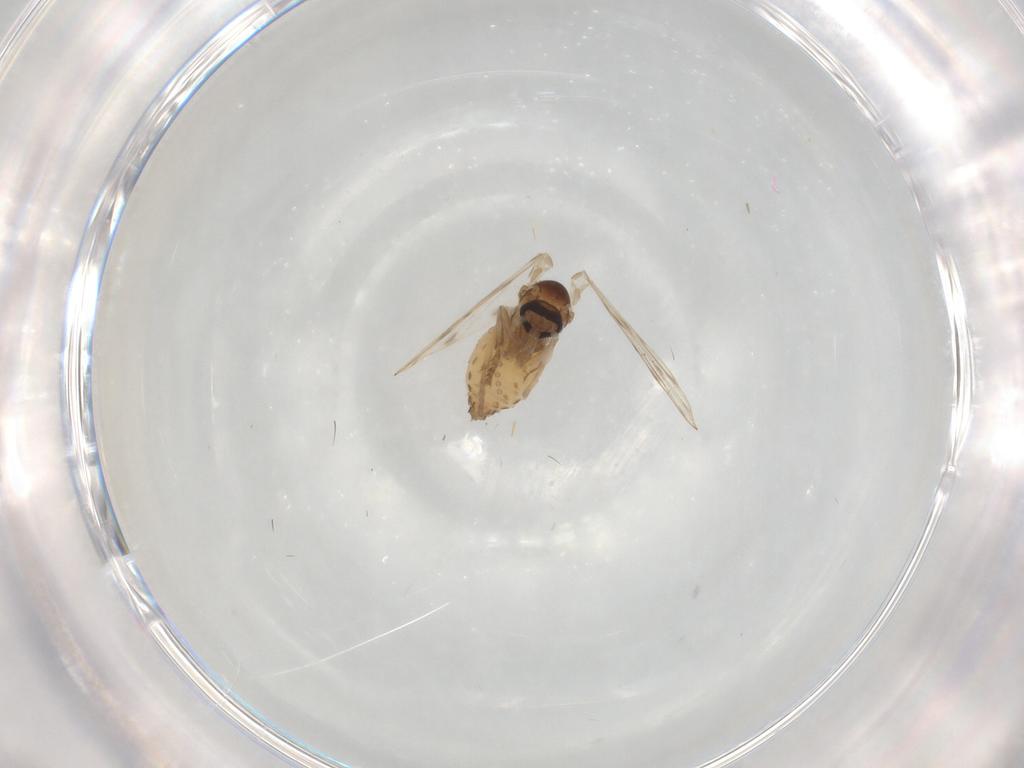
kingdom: Animalia
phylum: Arthropoda
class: Insecta
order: Diptera
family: Psychodidae
